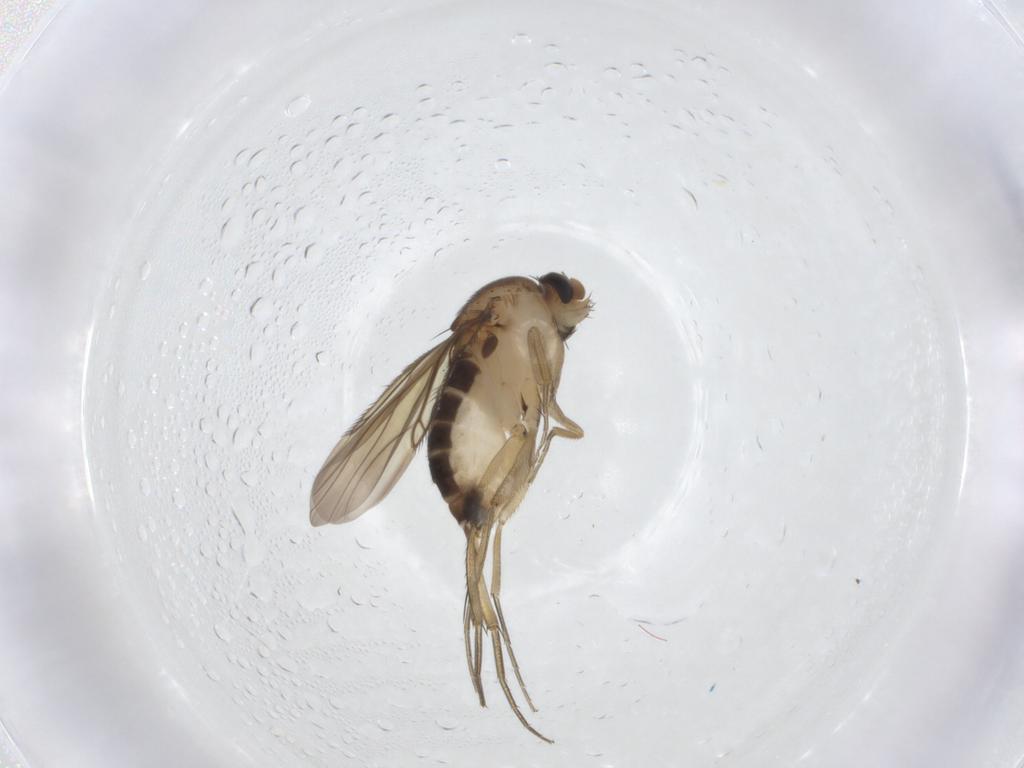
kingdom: Animalia
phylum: Arthropoda
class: Insecta
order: Diptera
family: Phoridae
